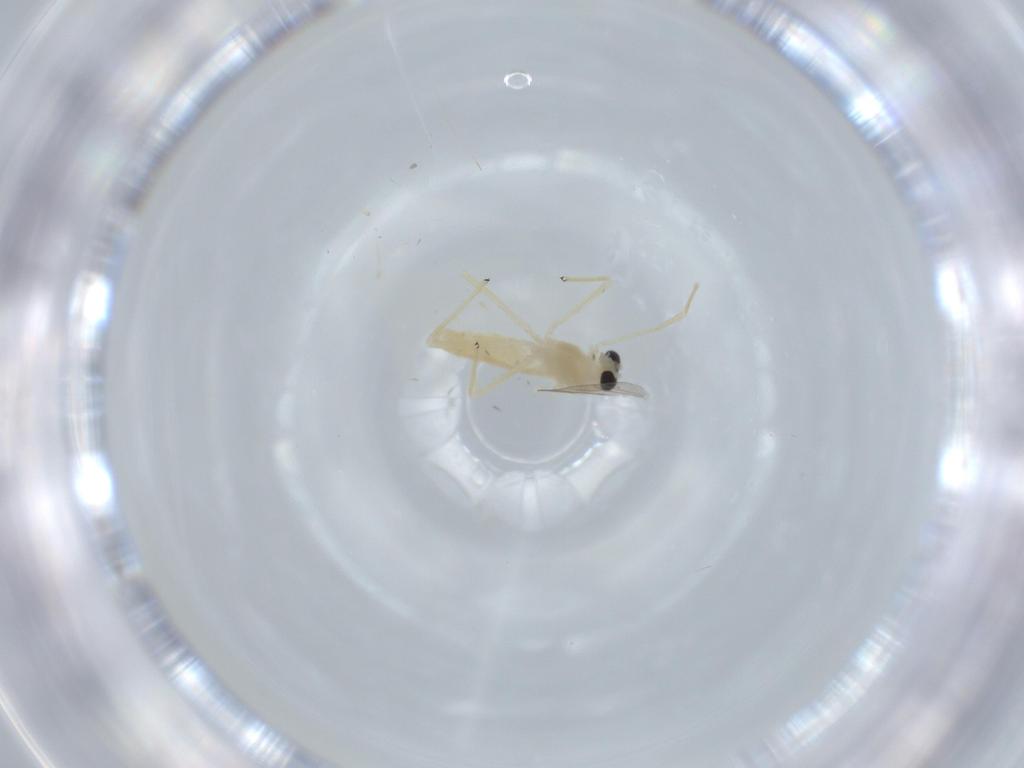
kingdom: Animalia
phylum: Arthropoda
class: Insecta
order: Diptera
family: Chironomidae
